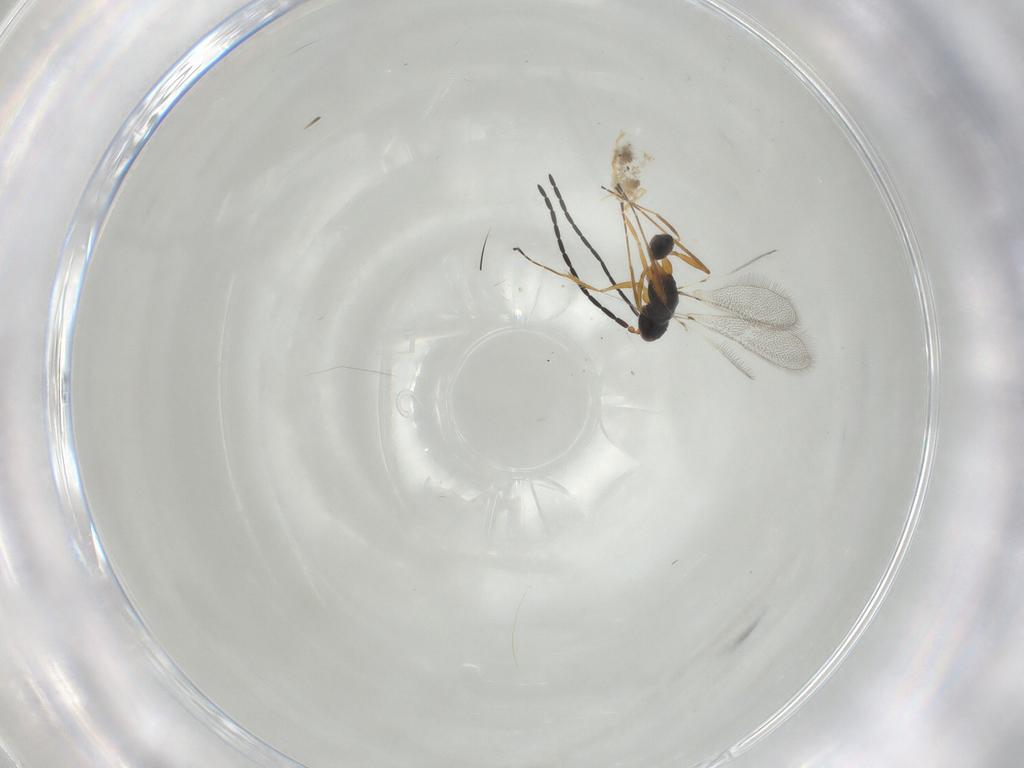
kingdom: Animalia
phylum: Arthropoda
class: Insecta
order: Hymenoptera
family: Mymaridae
